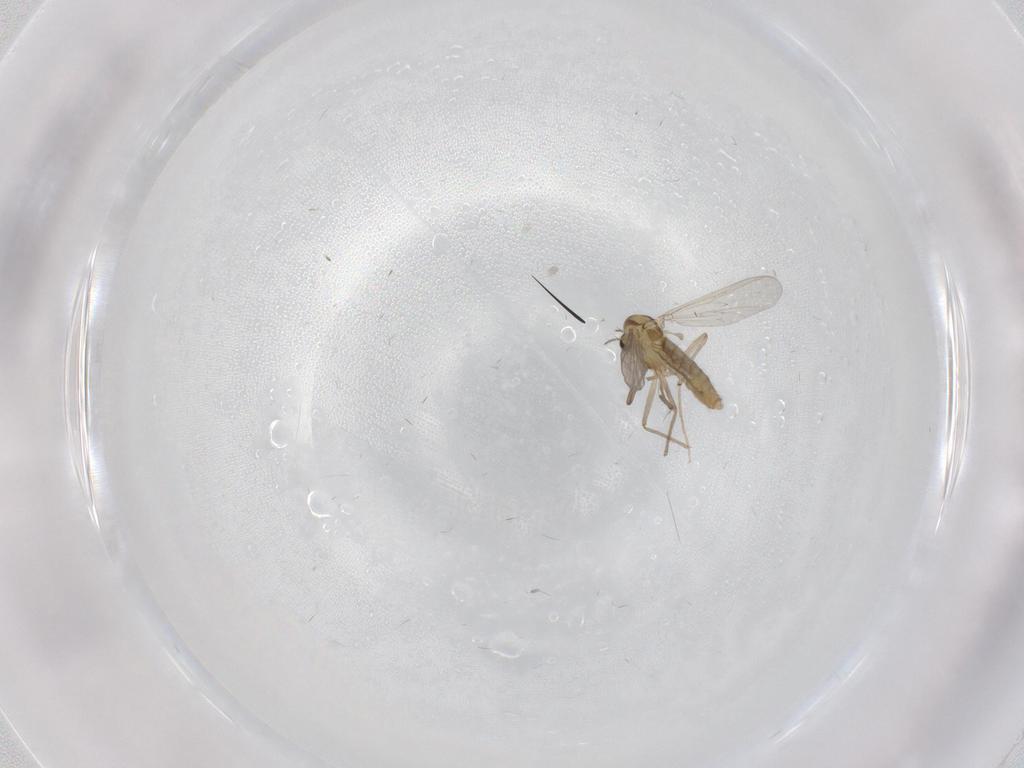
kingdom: Animalia
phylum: Arthropoda
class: Insecta
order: Diptera
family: Chironomidae
